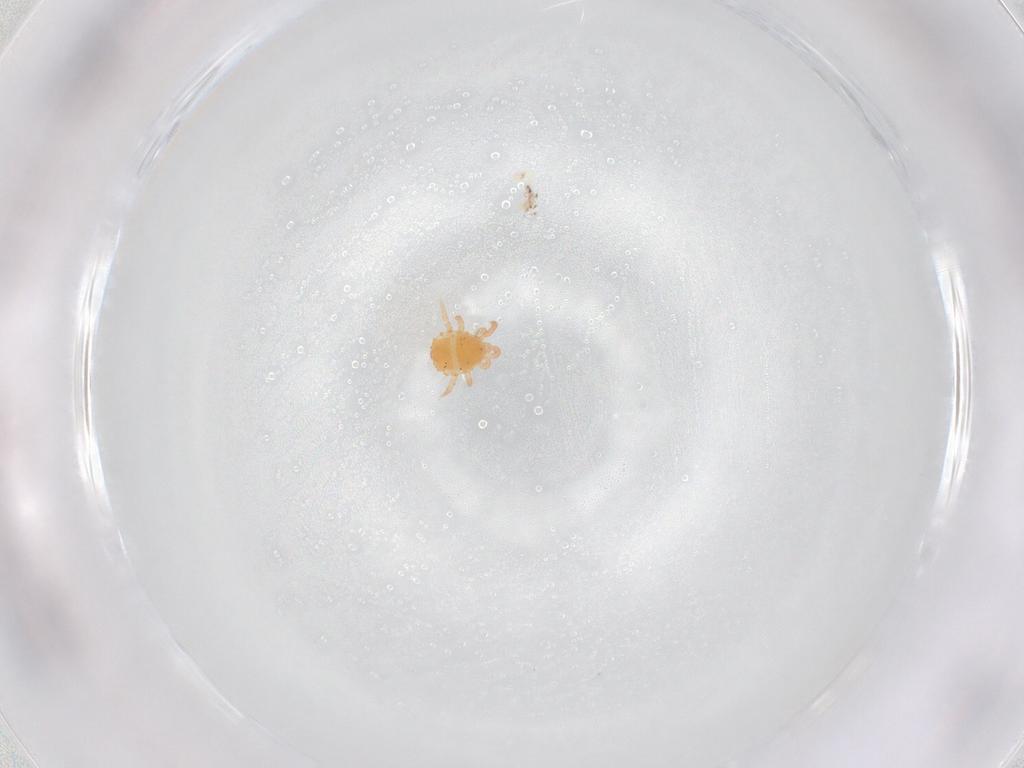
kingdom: Animalia
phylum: Arthropoda
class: Arachnida
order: Mesostigmata
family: Sejidae
